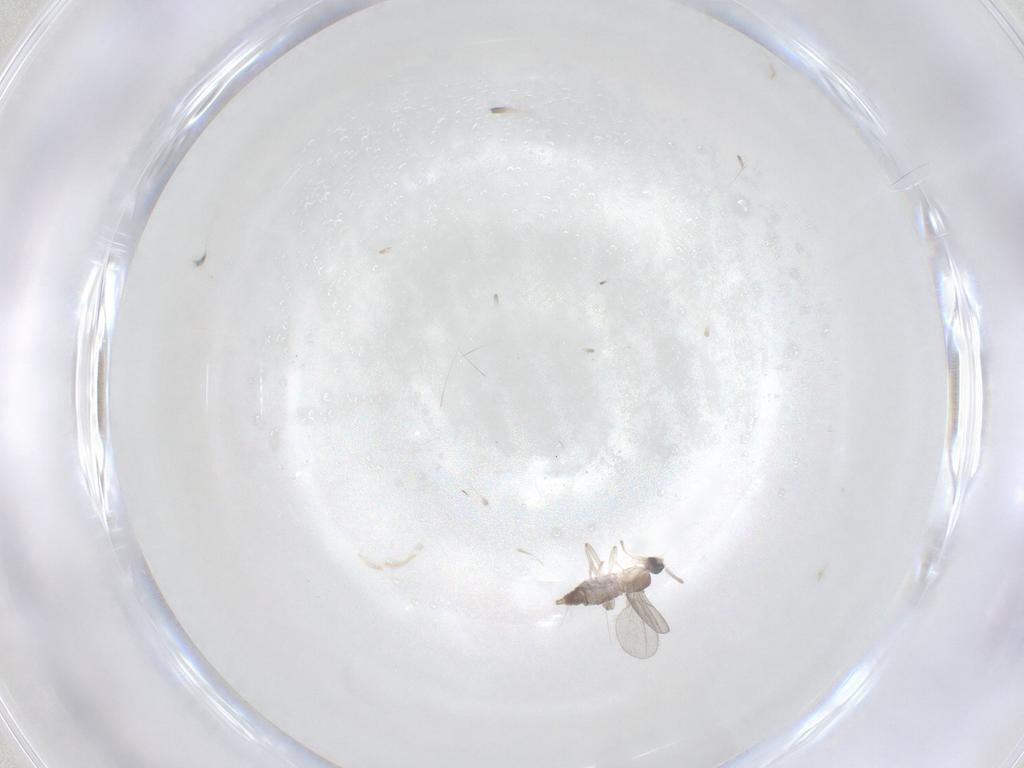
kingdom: Animalia
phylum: Arthropoda
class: Insecta
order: Diptera
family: Cecidomyiidae
